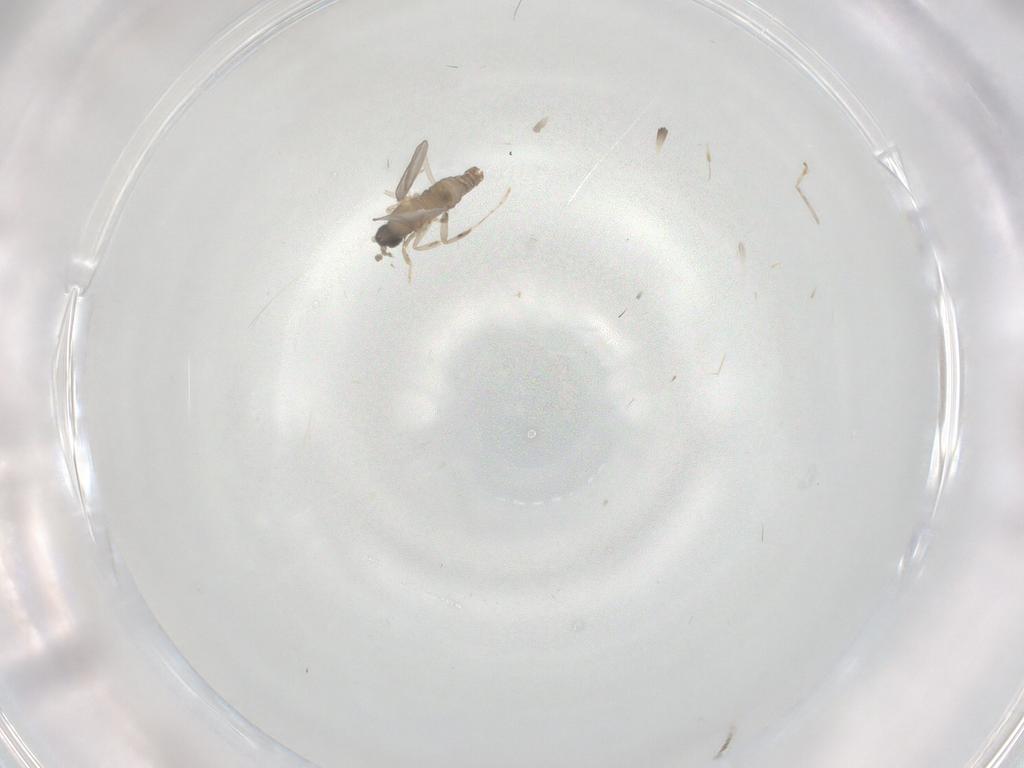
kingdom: Animalia
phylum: Arthropoda
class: Insecta
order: Diptera
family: Cecidomyiidae
